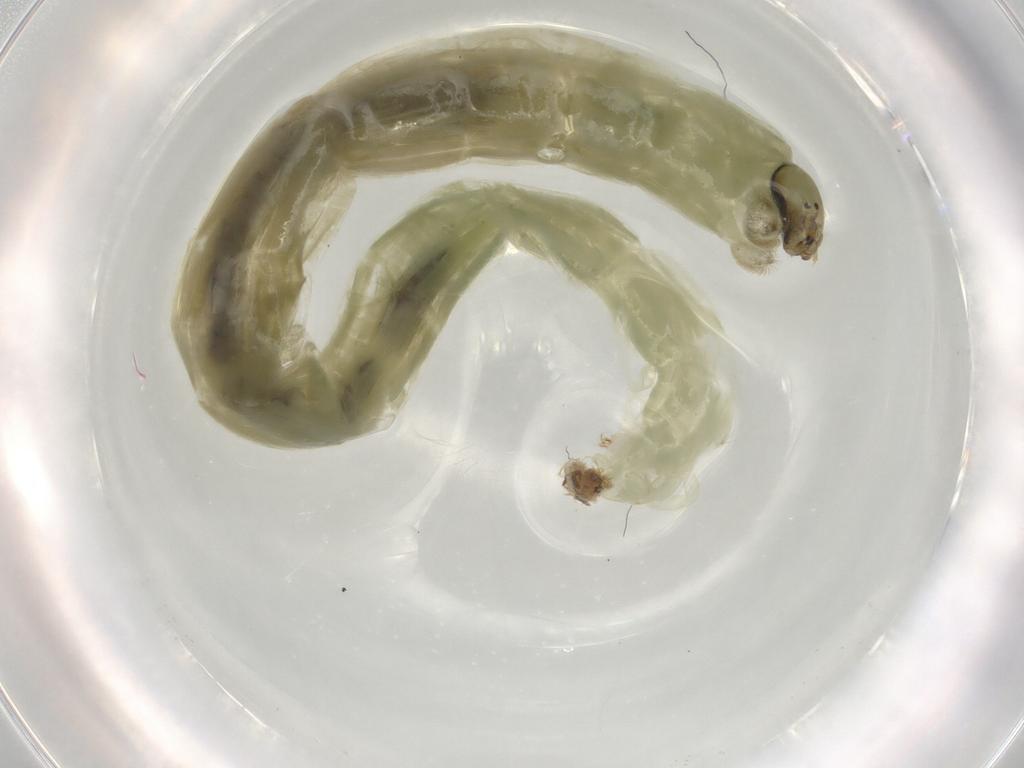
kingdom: Animalia
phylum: Arthropoda
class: Insecta
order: Diptera
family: Chironomidae
